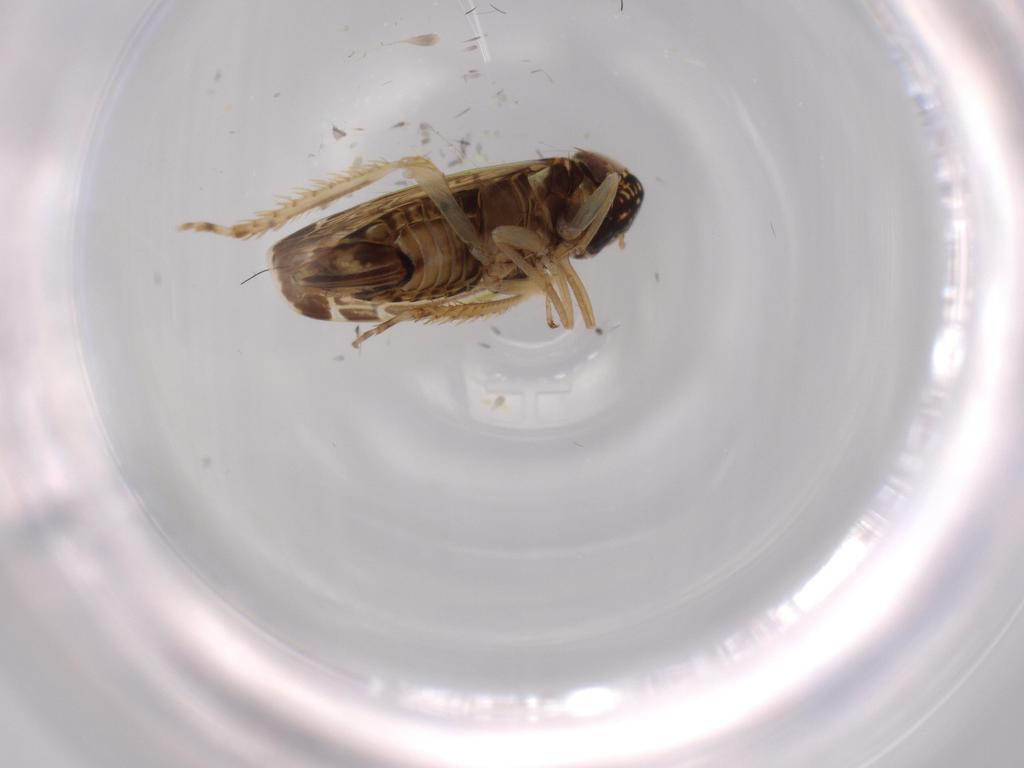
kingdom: Animalia
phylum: Arthropoda
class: Insecta
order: Hemiptera
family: Cicadellidae
